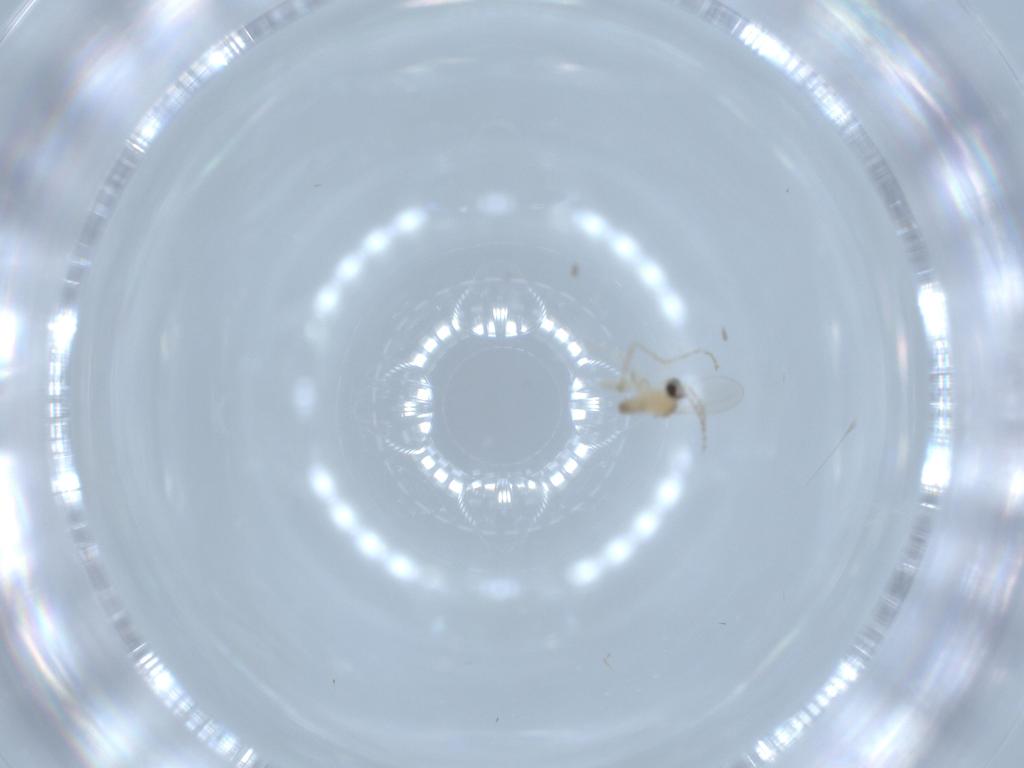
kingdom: Animalia
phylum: Arthropoda
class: Insecta
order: Diptera
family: Cecidomyiidae
